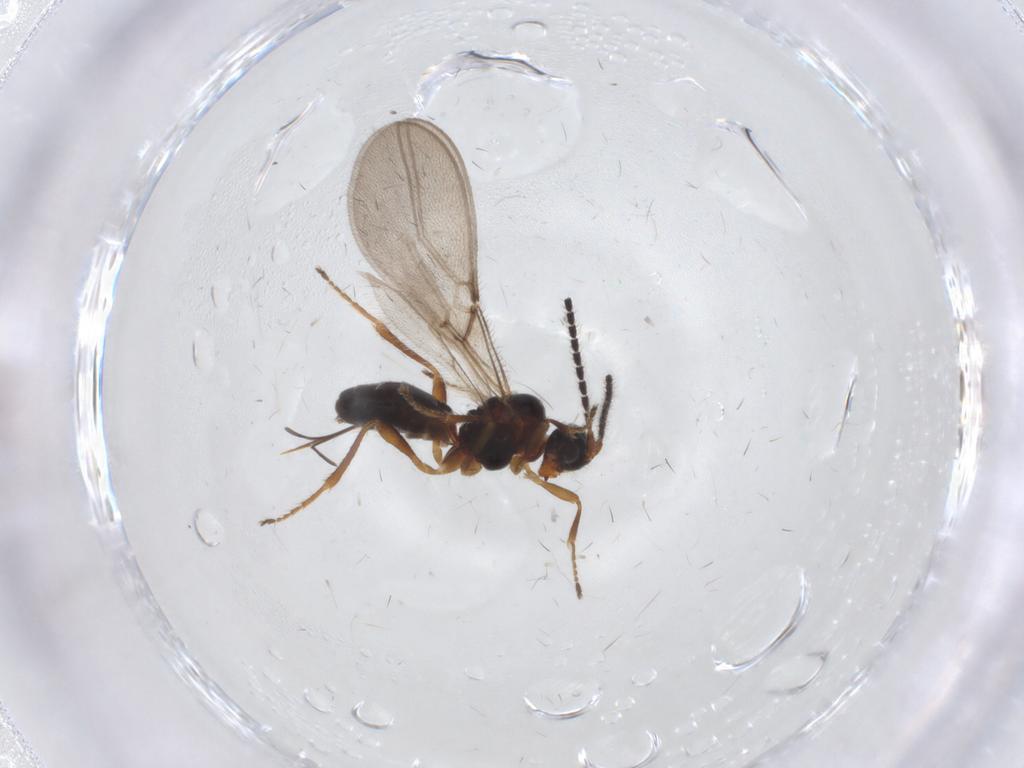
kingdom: Animalia
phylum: Arthropoda
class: Insecta
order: Hymenoptera
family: Braconidae
